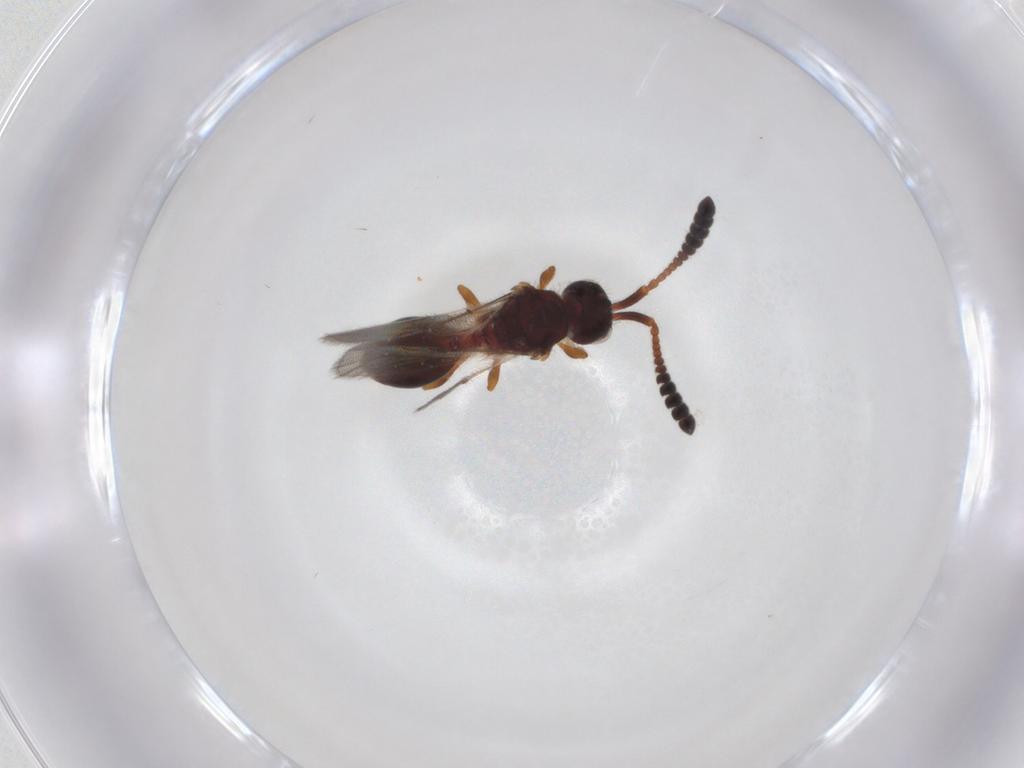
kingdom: Animalia
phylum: Arthropoda
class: Insecta
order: Hymenoptera
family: Diapriidae
